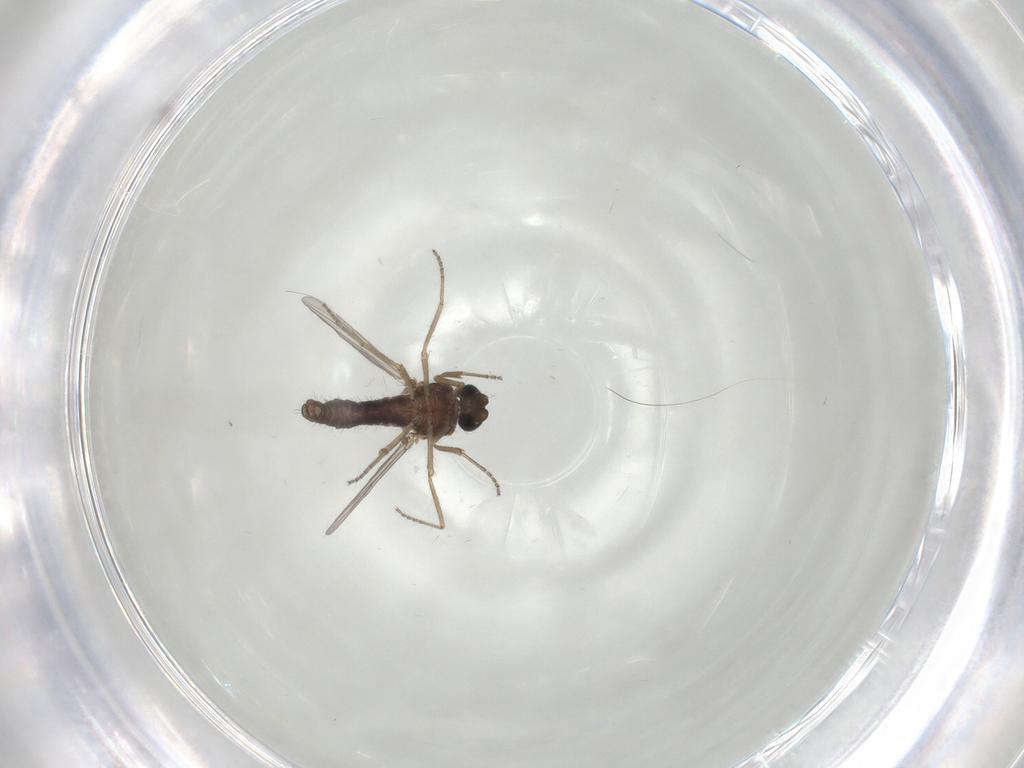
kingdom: Animalia
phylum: Arthropoda
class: Insecta
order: Diptera
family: Ceratopogonidae
